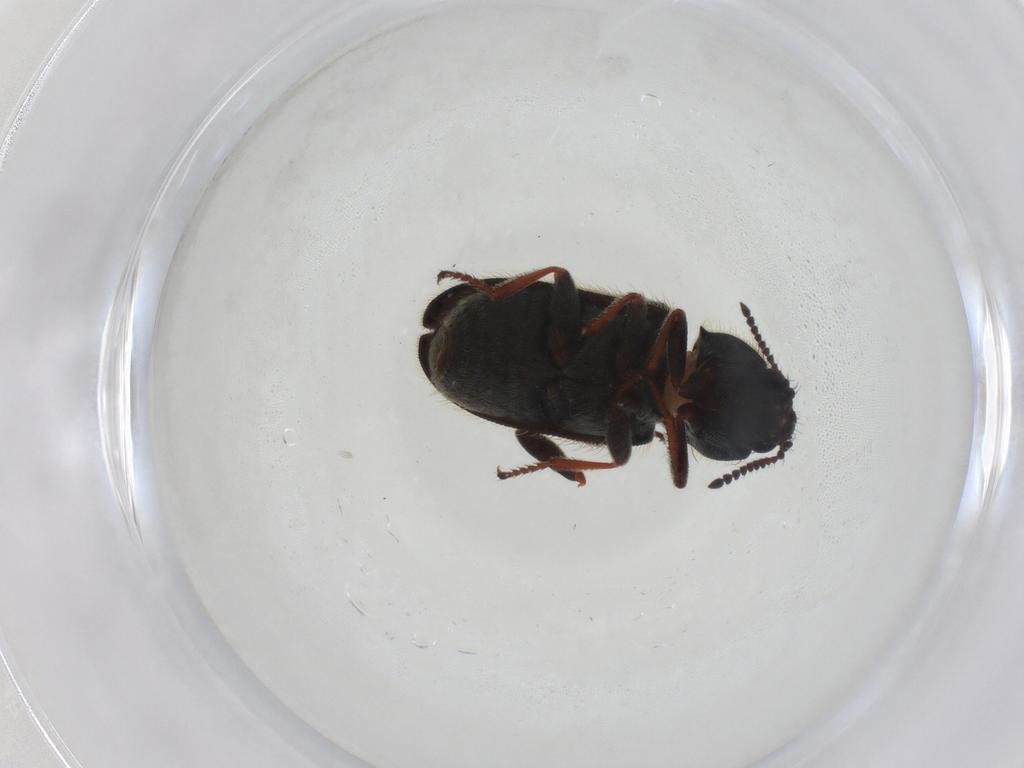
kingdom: Animalia
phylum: Arthropoda
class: Insecta
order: Coleoptera
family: Melyridae
